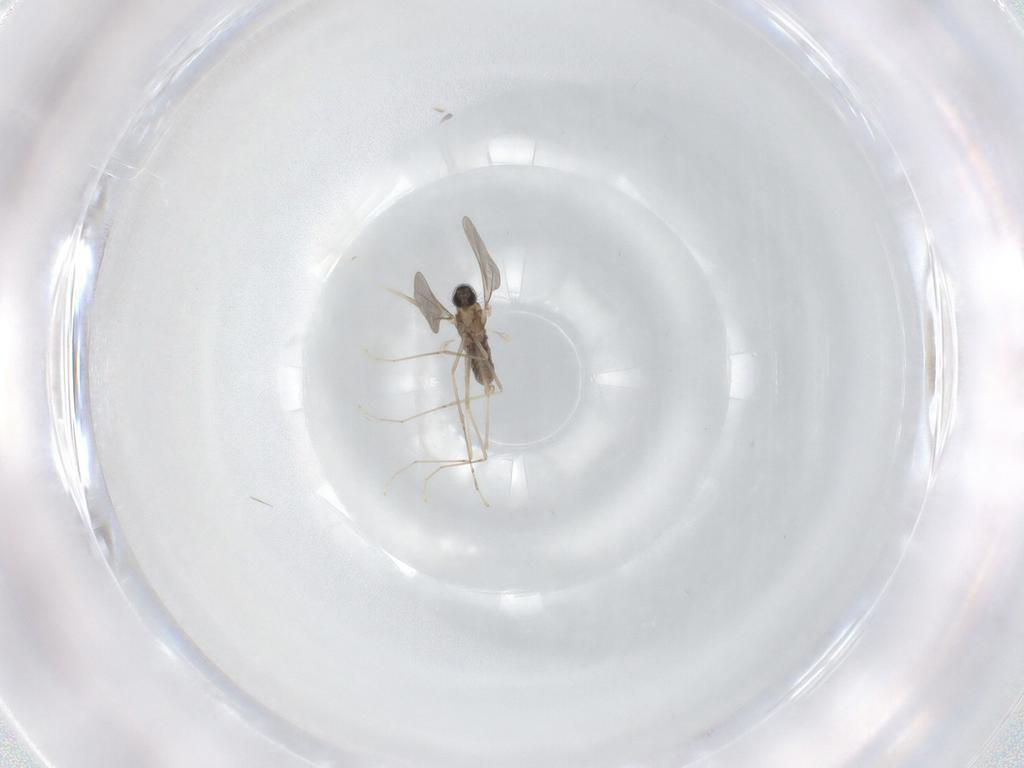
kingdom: Animalia
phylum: Arthropoda
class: Insecta
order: Diptera
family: Cecidomyiidae
